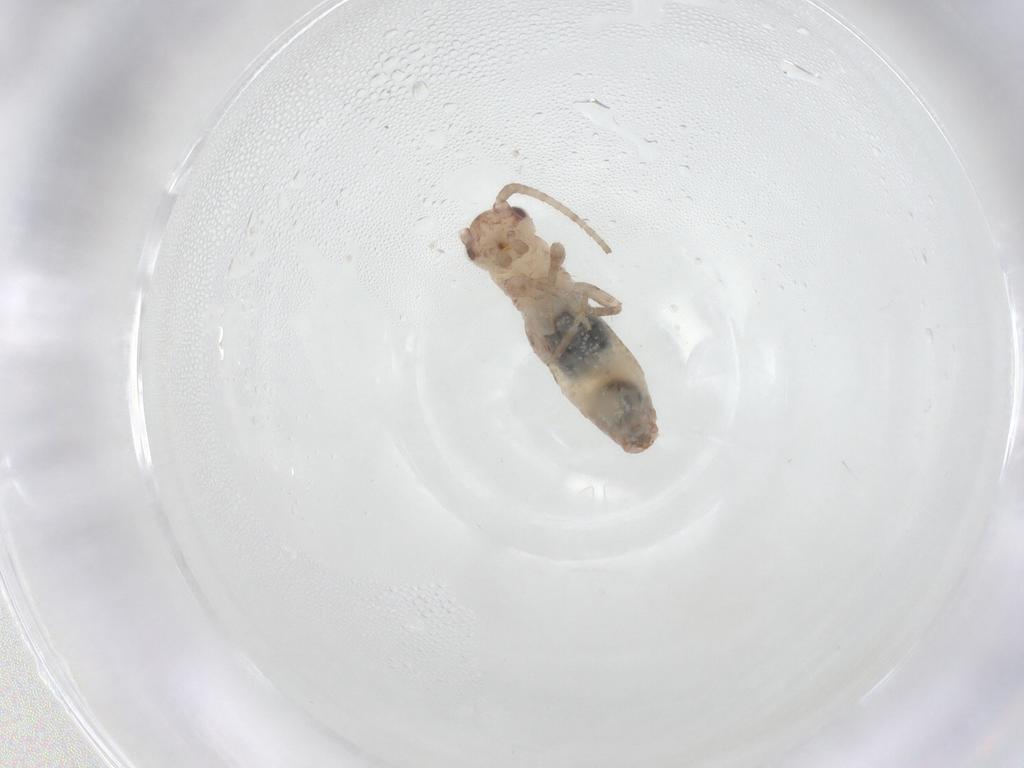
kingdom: Animalia
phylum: Arthropoda
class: Insecta
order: Orthoptera
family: Mogoplistidae
